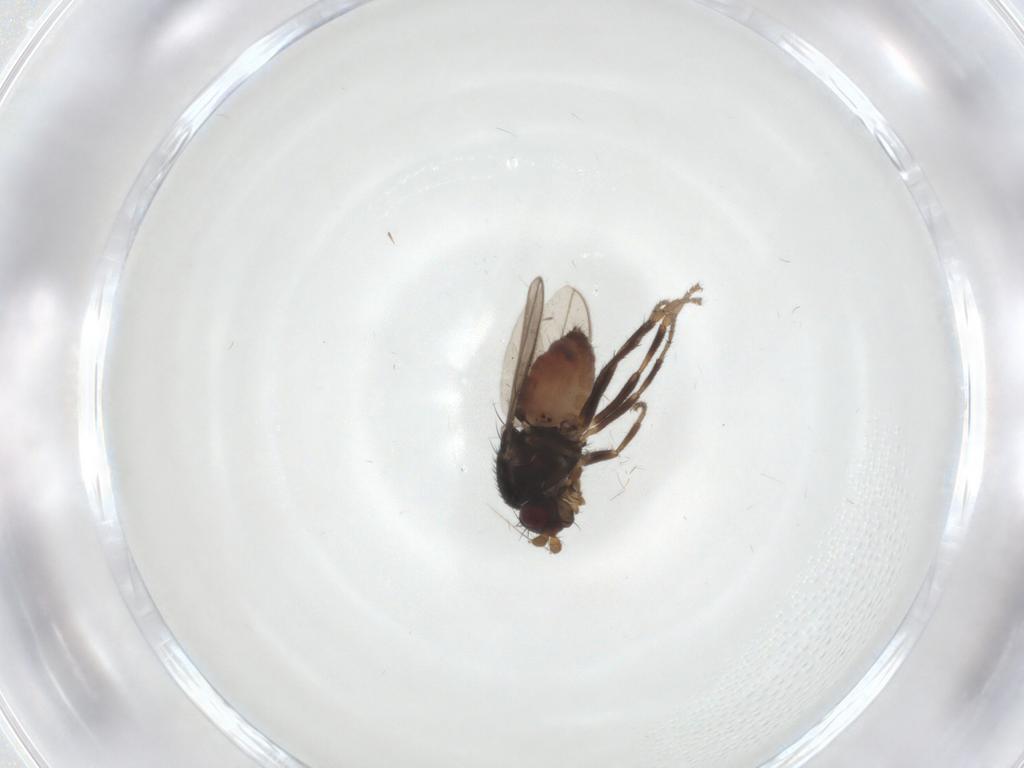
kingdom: Animalia
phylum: Arthropoda
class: Insecta
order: Diptera
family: Sphaeroceridae
